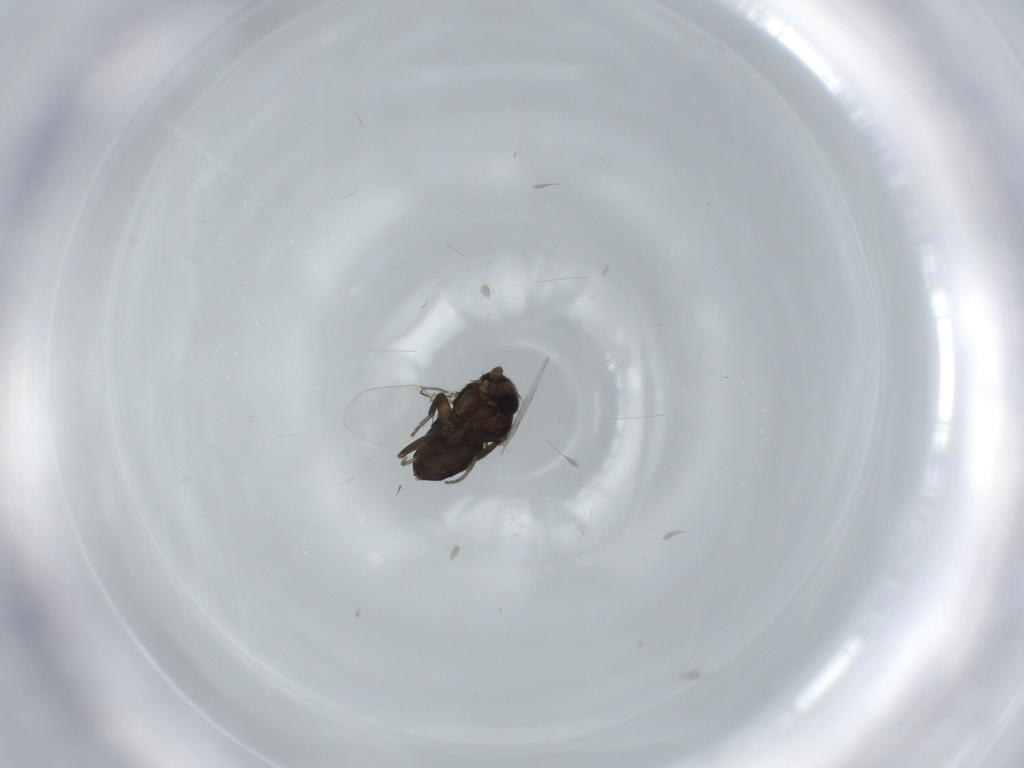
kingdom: Animalia
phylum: Arthropoda
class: Insecta
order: Diptera
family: Phoridae
